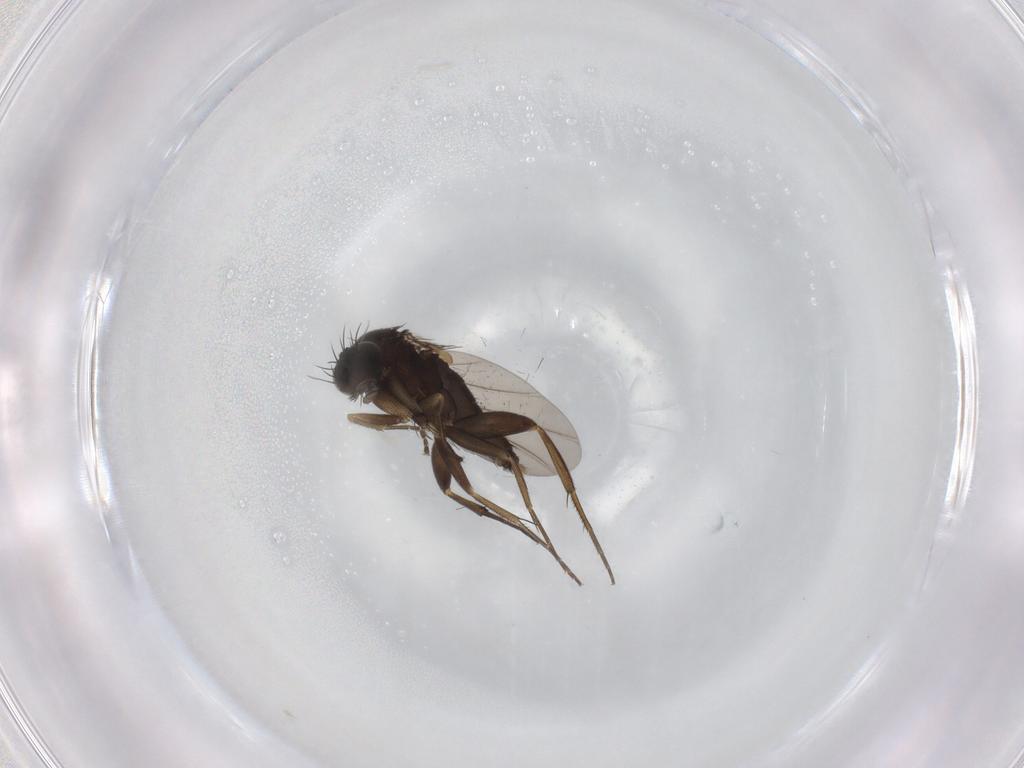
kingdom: Animalia
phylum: Arthropoda
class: Insecta
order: Diptera
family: Phoridae
